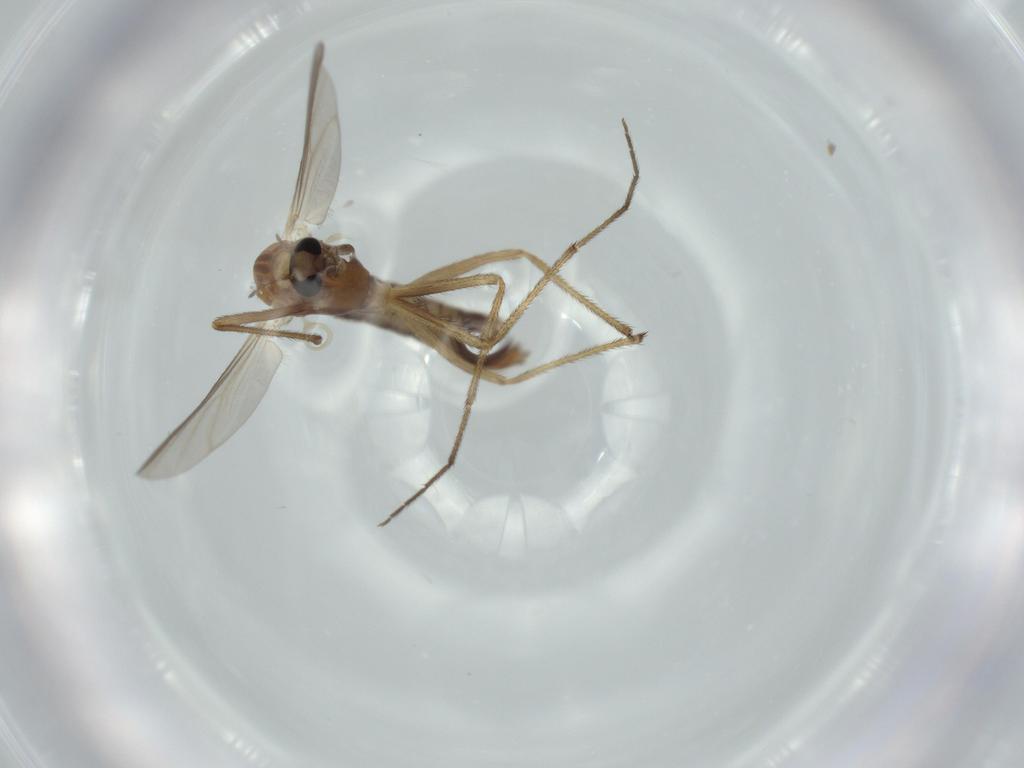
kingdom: Animalia
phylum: Arthropoda
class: Insecta
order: Diptera
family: Chironomidae
